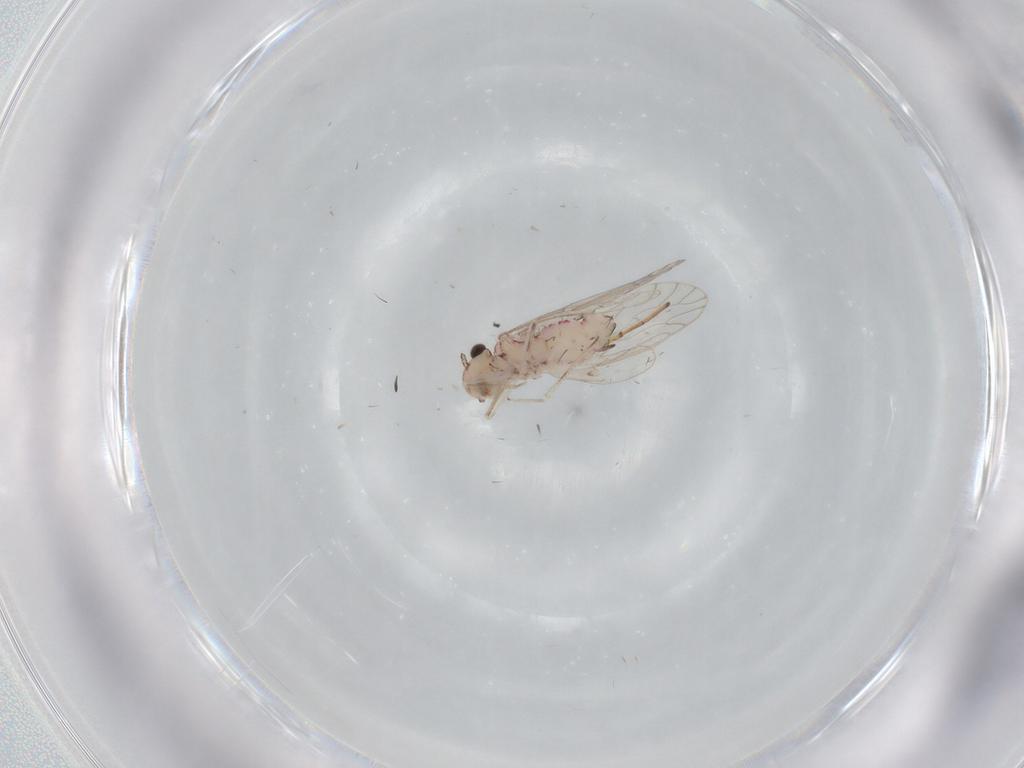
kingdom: Animalia
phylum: Arthropoda
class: Insecta
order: Psocodea
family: Caeciliusidae
